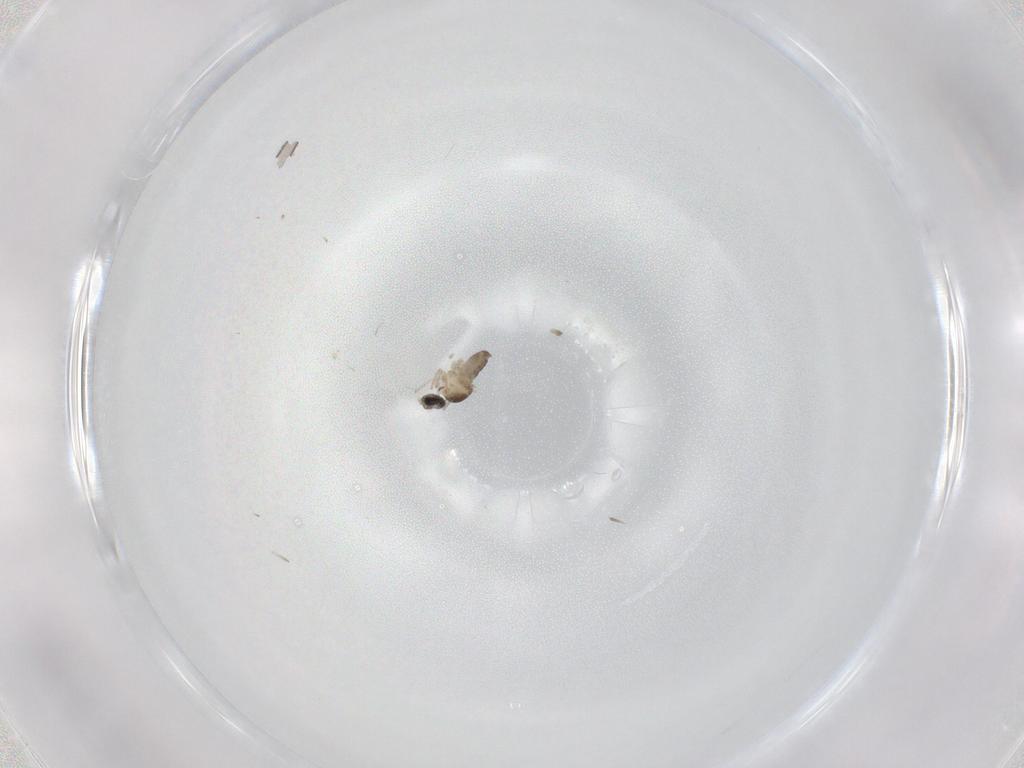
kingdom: Animalia
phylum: Arthropoda
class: Insecta
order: Diptera
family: Cecidomyiidae
